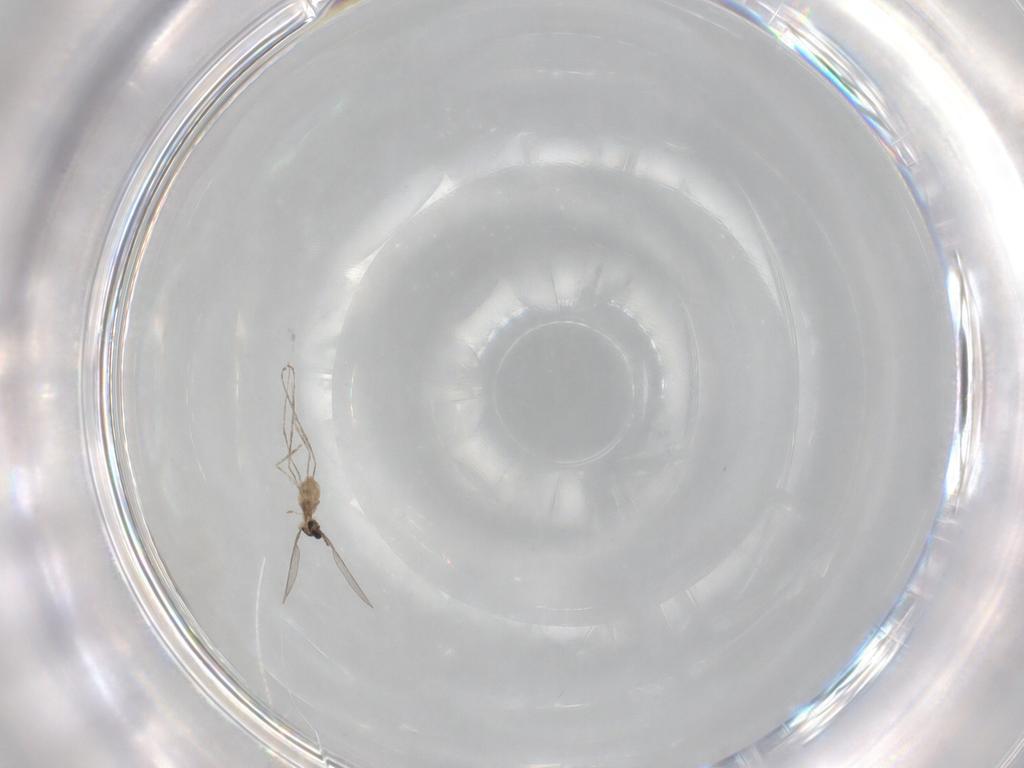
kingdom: Animalia
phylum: Arthropoda
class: Insecta
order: Diptera
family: Cecidomyiidae
